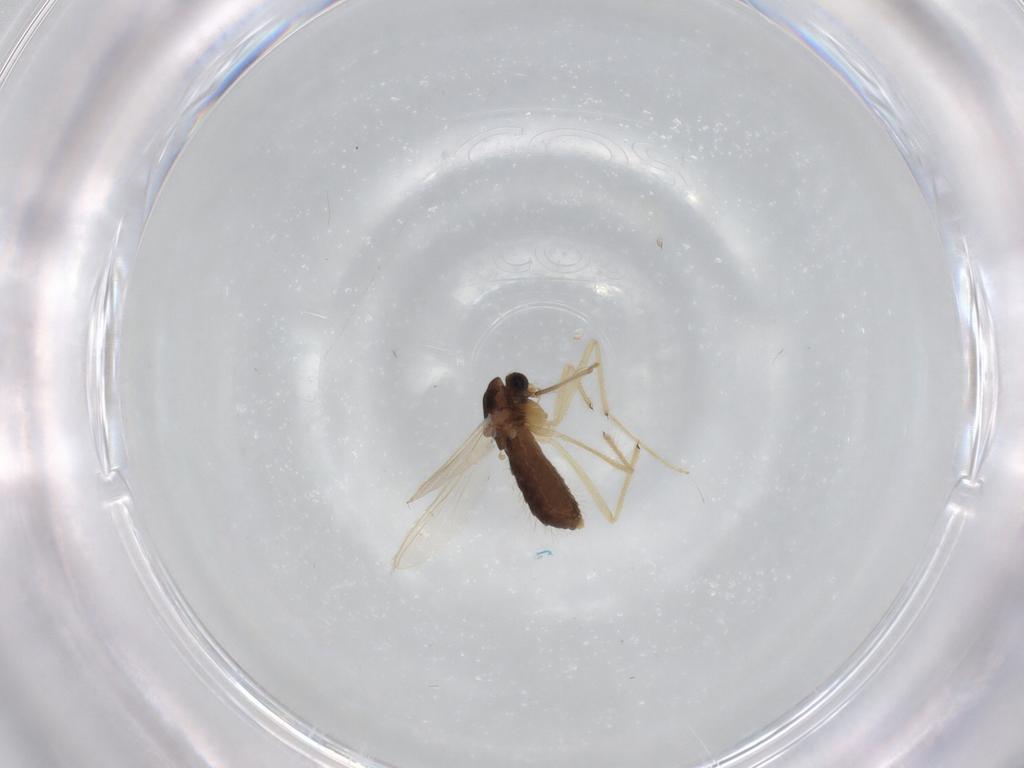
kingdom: Animalia
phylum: Arthropoda
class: Insecta
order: Diptera
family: Chironomidae
